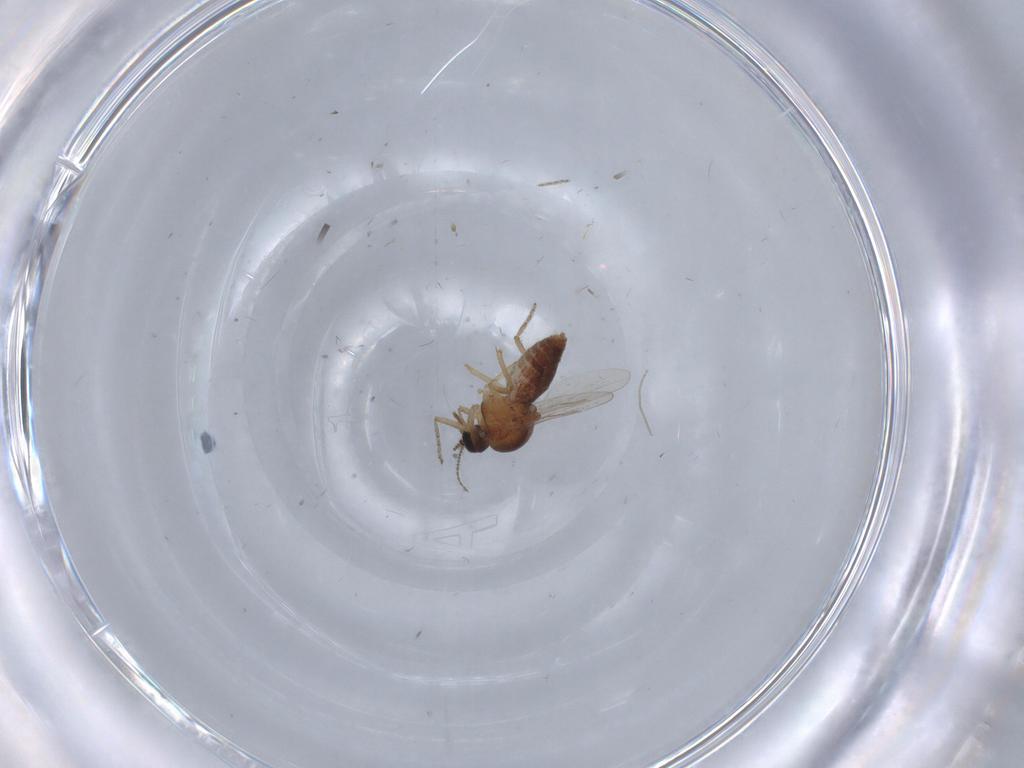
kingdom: Animalia
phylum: Arthropoda
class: Insecta
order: Diptera
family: Ceratopogonidae
